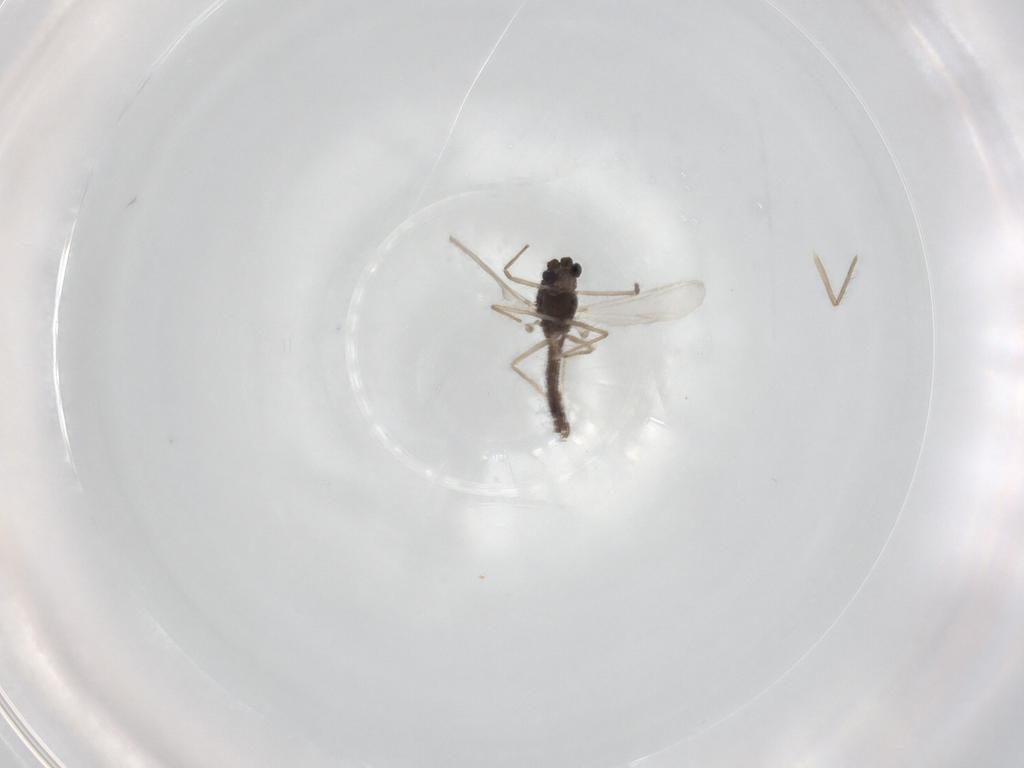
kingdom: Animalia
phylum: Arthropoda
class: Insecta
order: Diptera
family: Chironomidae
